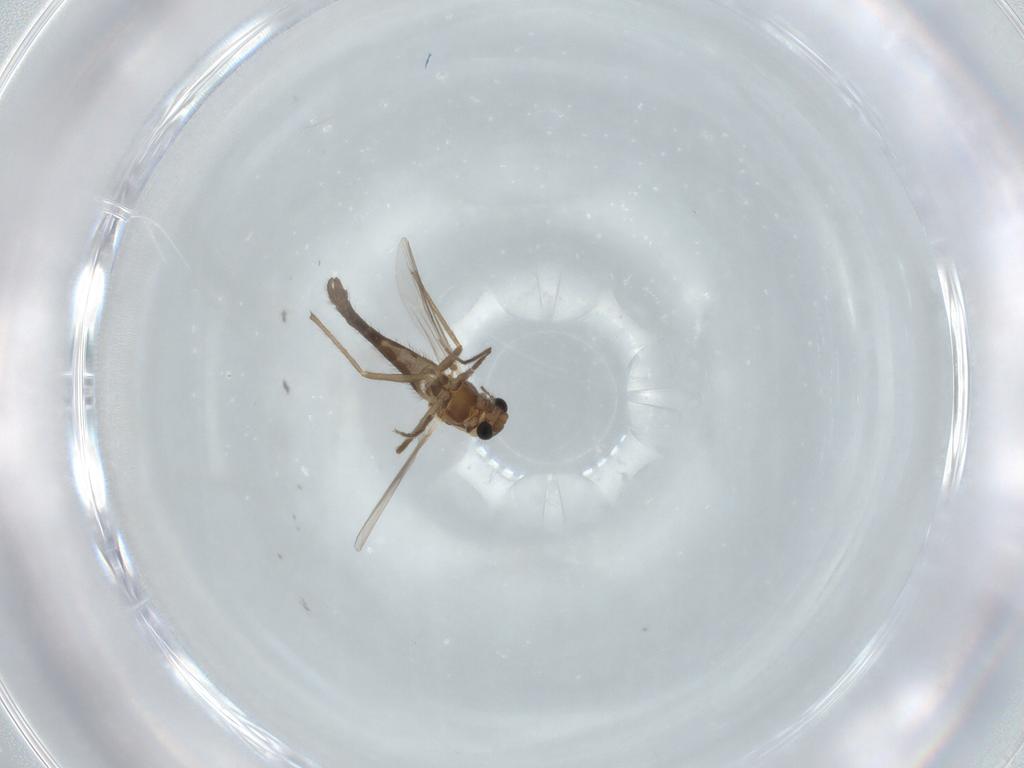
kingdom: Animalia
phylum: Arthropoda
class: Insecta
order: Diptera
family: Chironomidae
